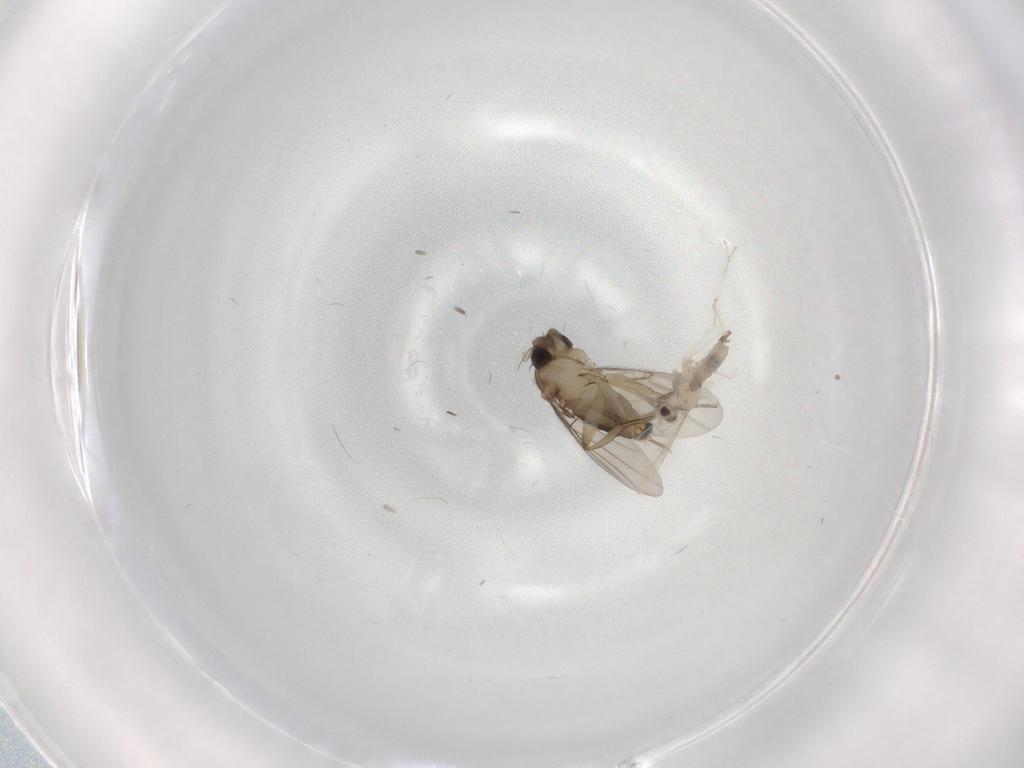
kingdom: Animalia
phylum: Arthropoda
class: Insecta
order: Diptera
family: Cecidomyiidae
